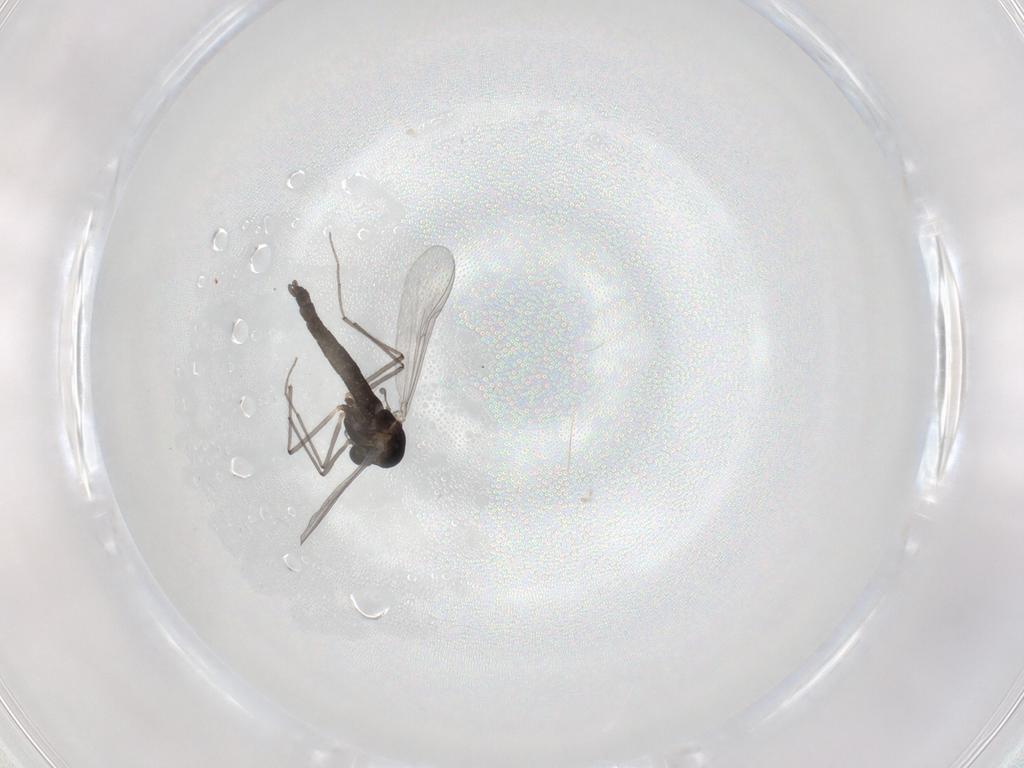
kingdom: Animalia
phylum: Arthropoda
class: Insecta
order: Diptera
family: Chironomidae
